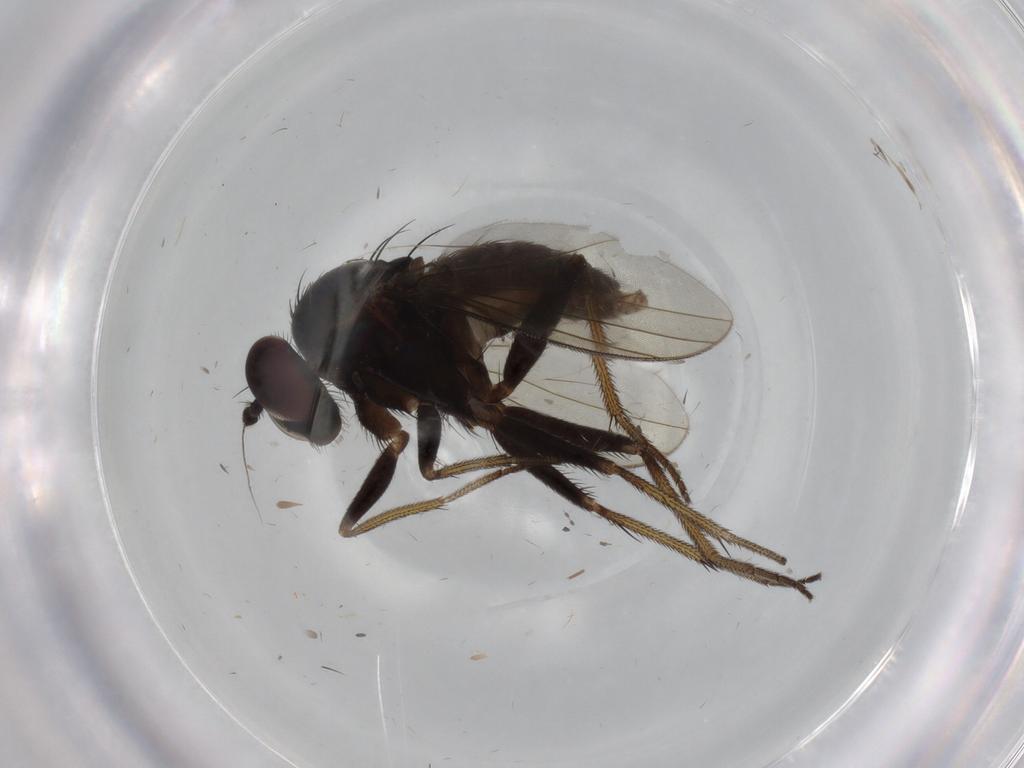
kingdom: Animalia
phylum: Arthropoda
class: Insecta
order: Diptera
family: Dolichopodidae
